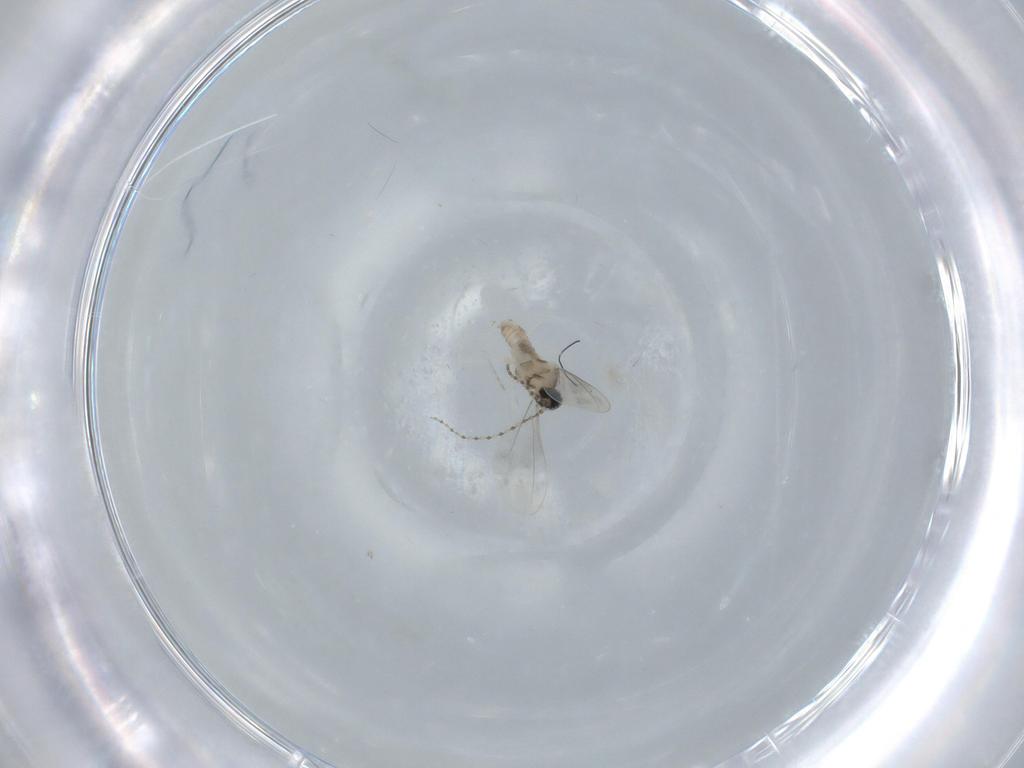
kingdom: Animalia
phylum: Arthropoda
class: Insecta
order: Diptera
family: Cecidomyiidae
